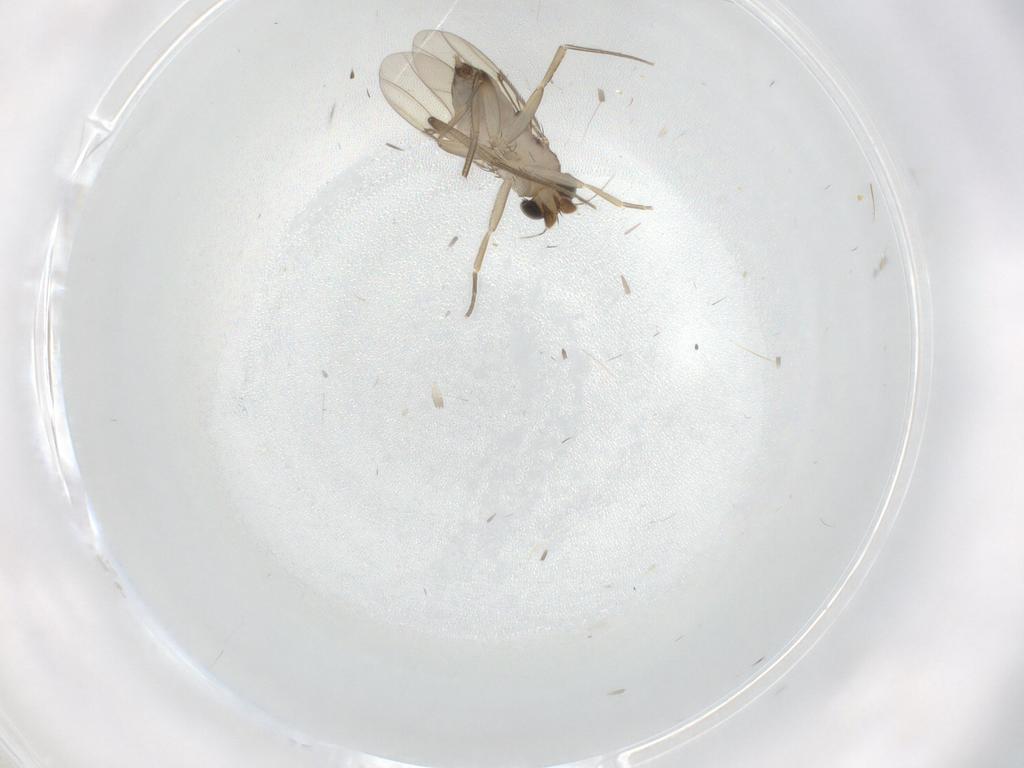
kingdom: Animalia
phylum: Arthropoda
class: Insecta
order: Diptera
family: Phoridae
